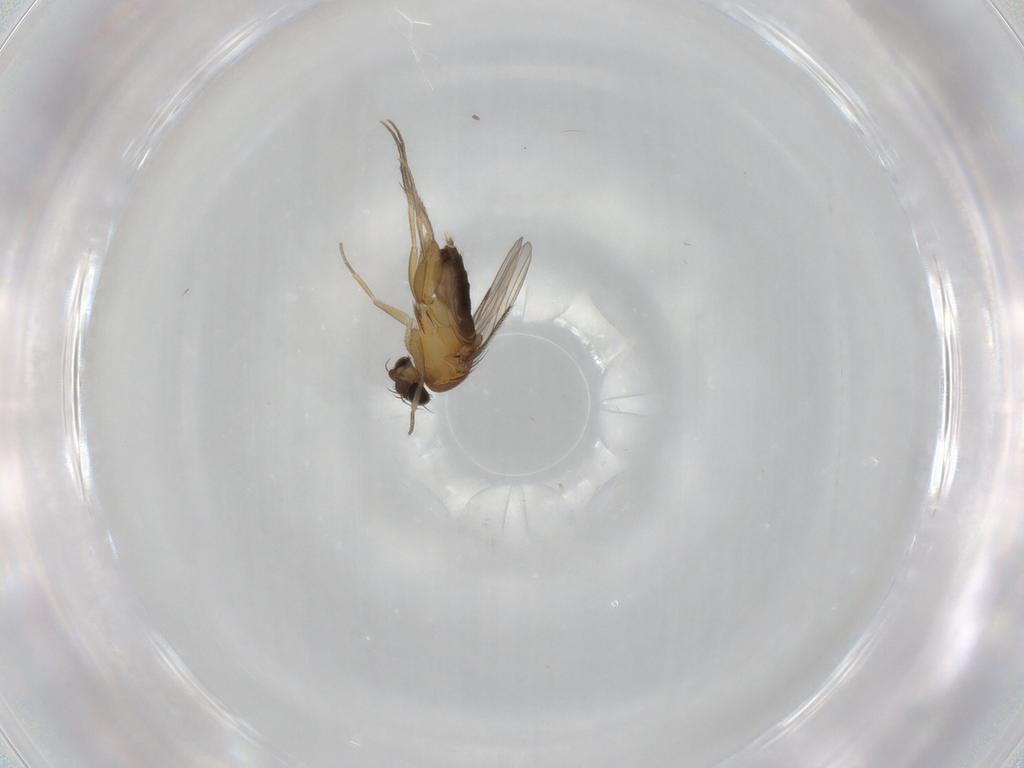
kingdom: Animalia
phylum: Arthropoda
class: Insecta
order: Diptera
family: Phoridae
